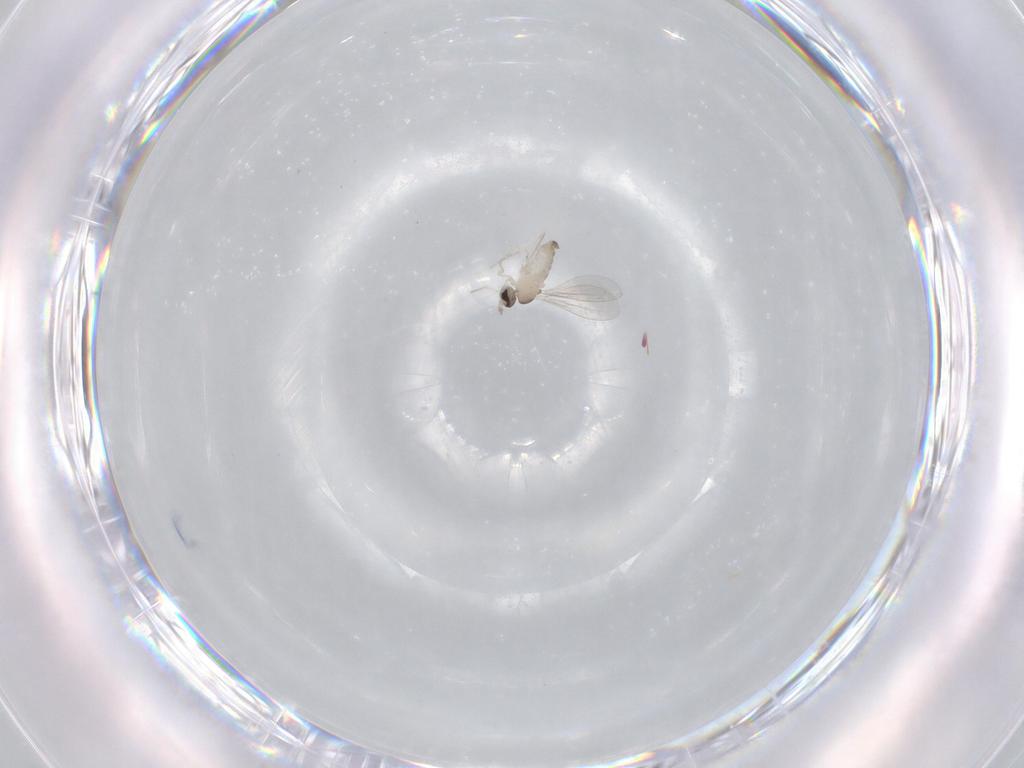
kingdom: Animalia
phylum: Arthropoda
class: Insecta
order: Diptera
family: Cecidomyiidae
